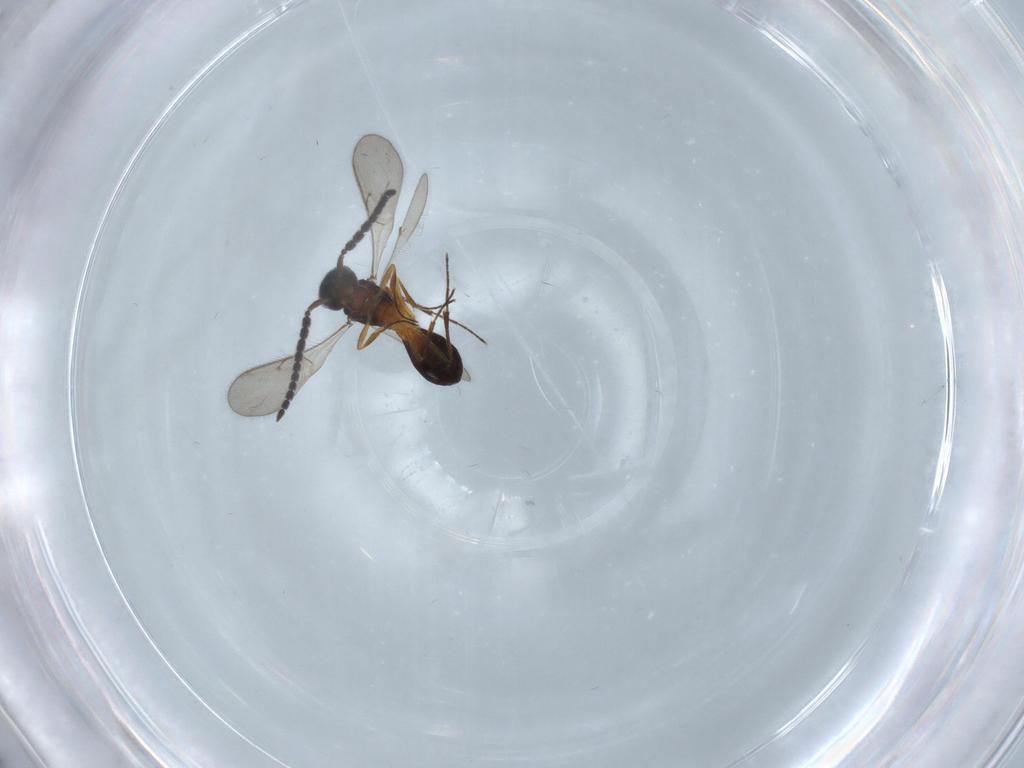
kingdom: Animalia
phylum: Arthropoda
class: Insecta
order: Hymenoptera
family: Scelionidae
